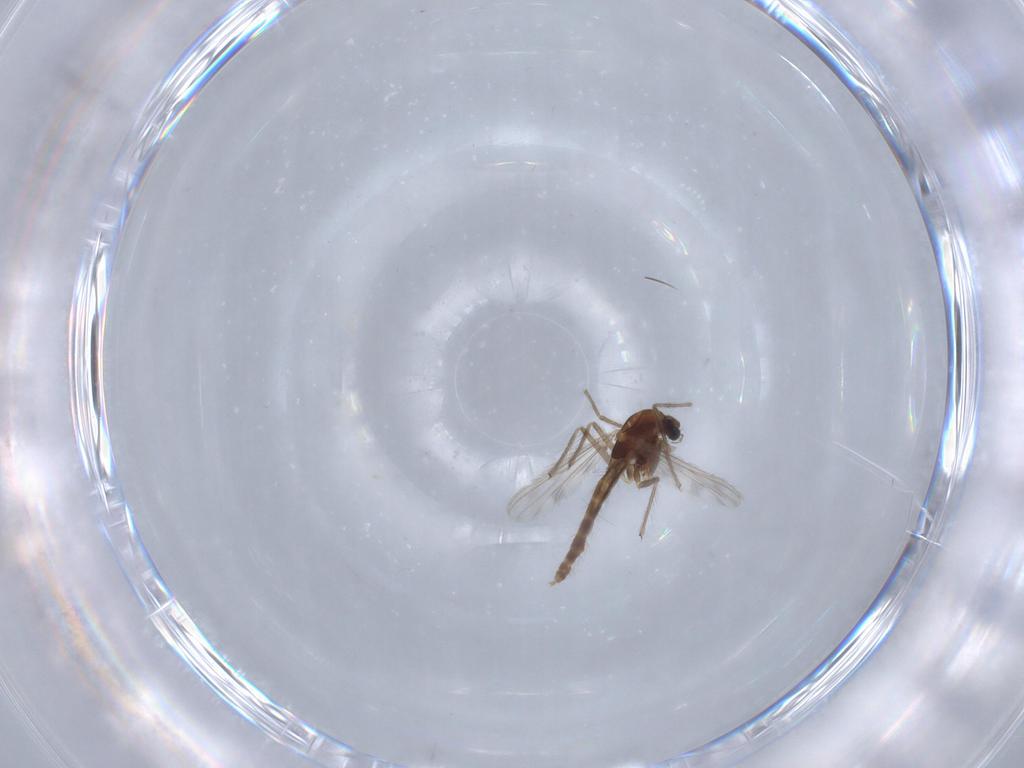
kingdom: Animalia
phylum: Arthropoda
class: Insecta
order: Diptera
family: Chironomidae
